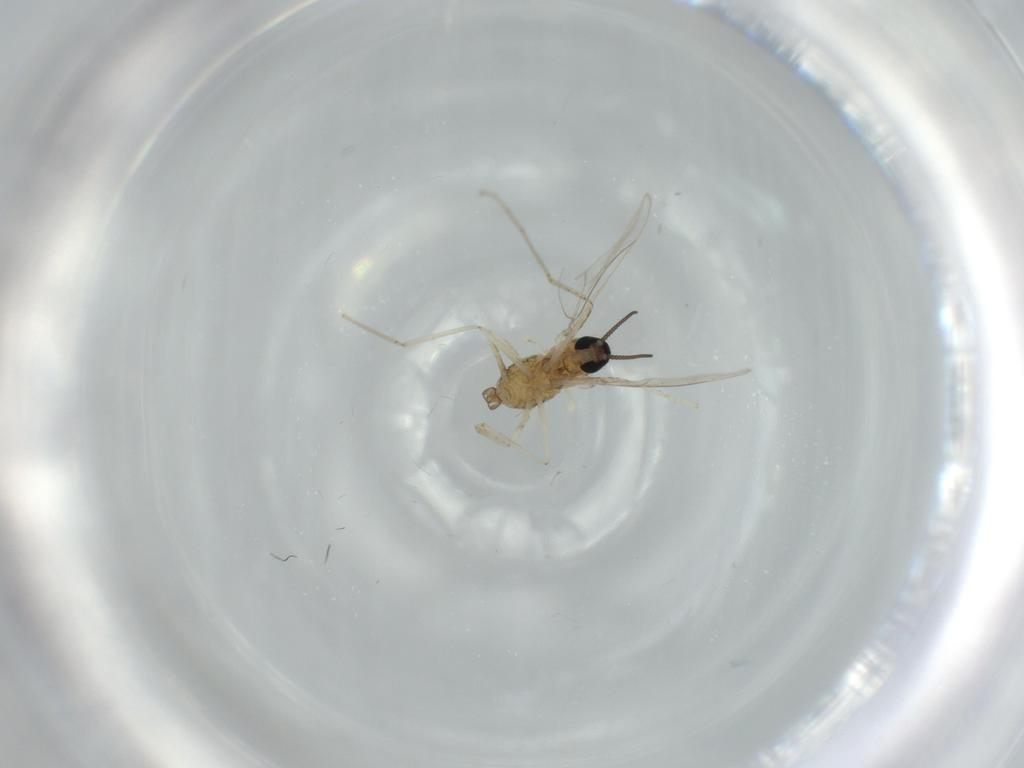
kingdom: Animalia
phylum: Arthropoda
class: Insecta
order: Diptera
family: Cecidomyiidae
